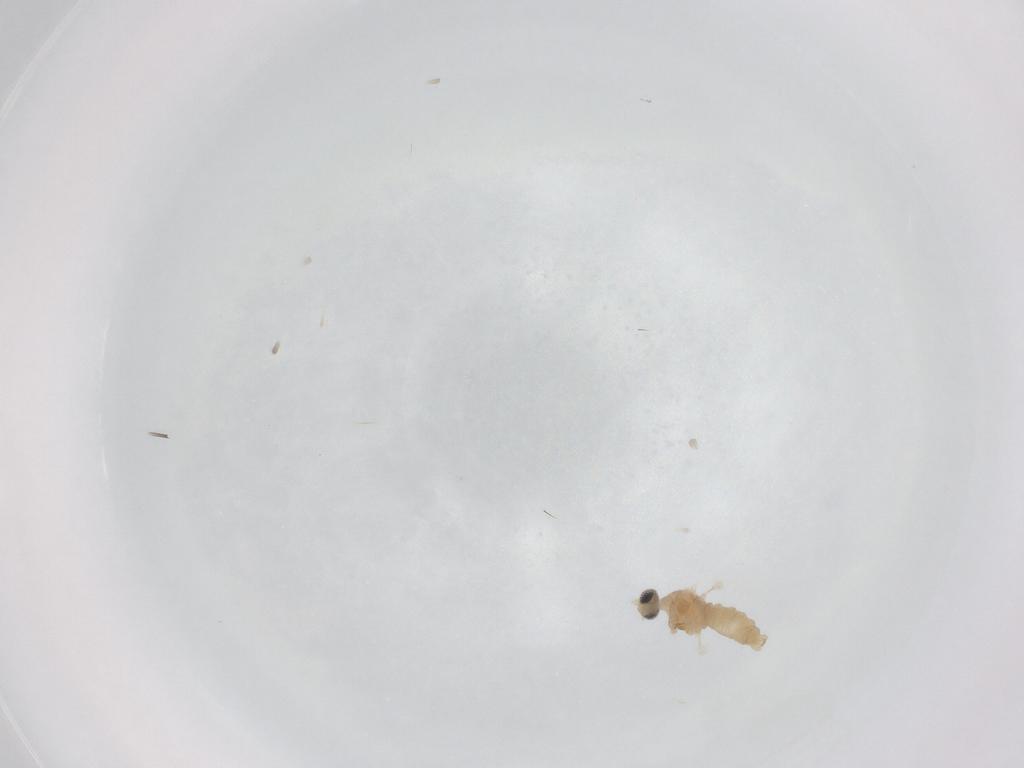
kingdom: Animalia
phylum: Arthropoda
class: Insecta
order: Diptera
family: Cecidomyiidae
